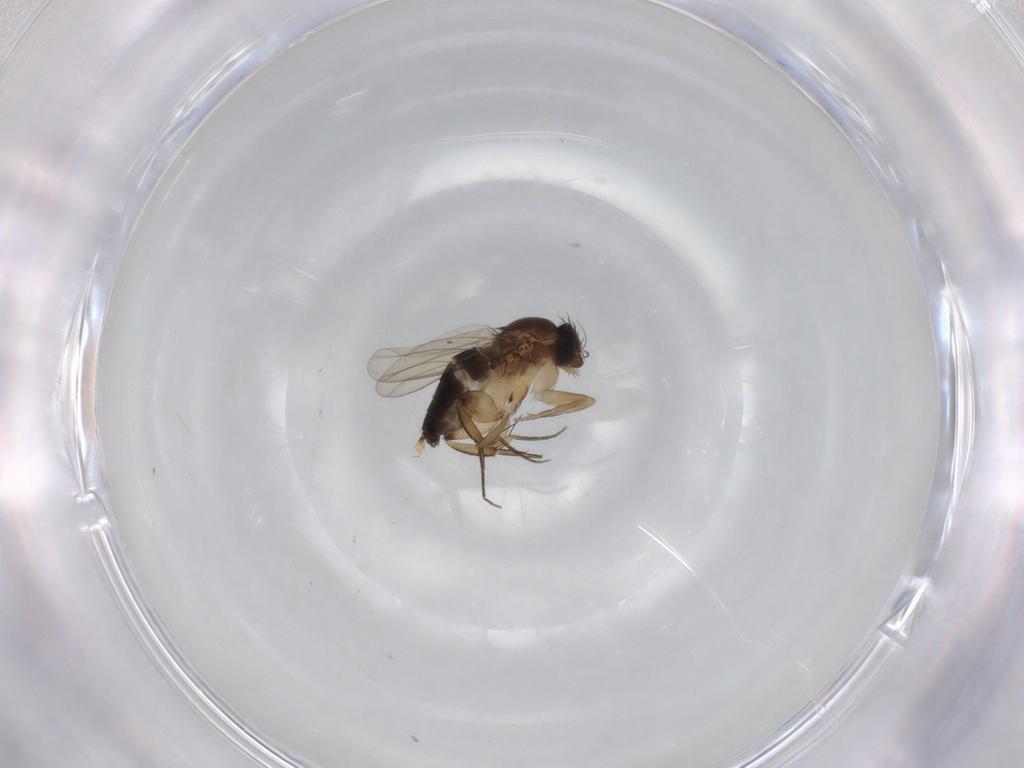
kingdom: Animalia
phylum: Arthropoda
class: Insecta
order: Diptera
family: Phoridae
